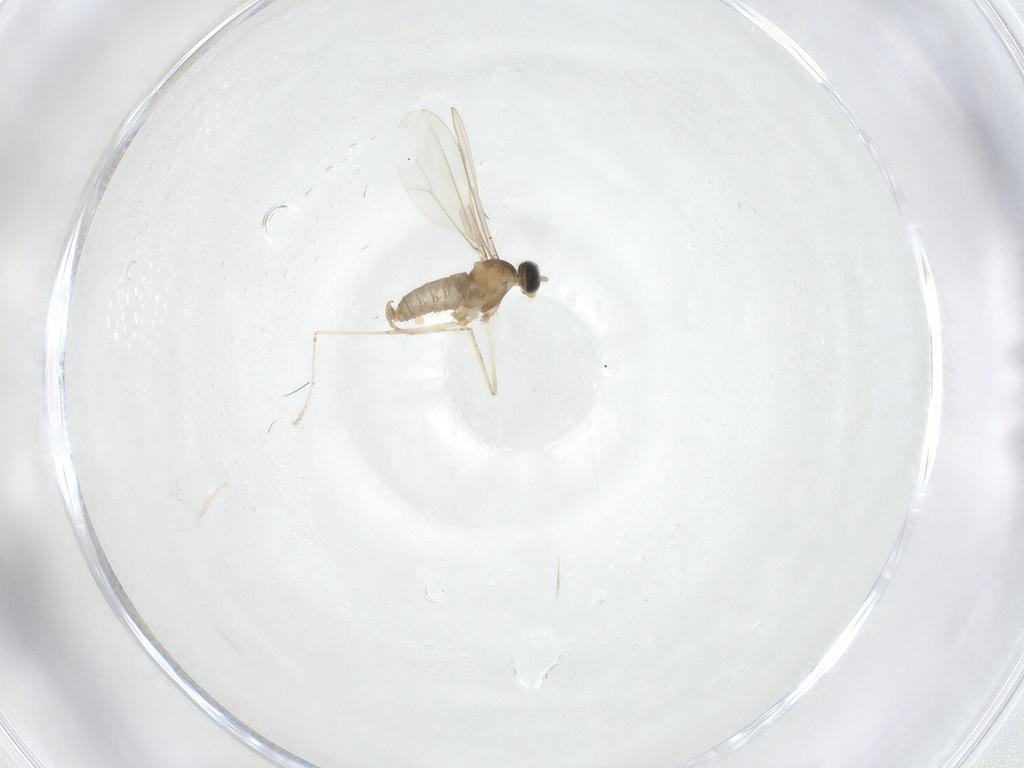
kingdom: Animalia
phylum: Arthropoda
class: Insecta
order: Diptera
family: Cecidomyiidae
